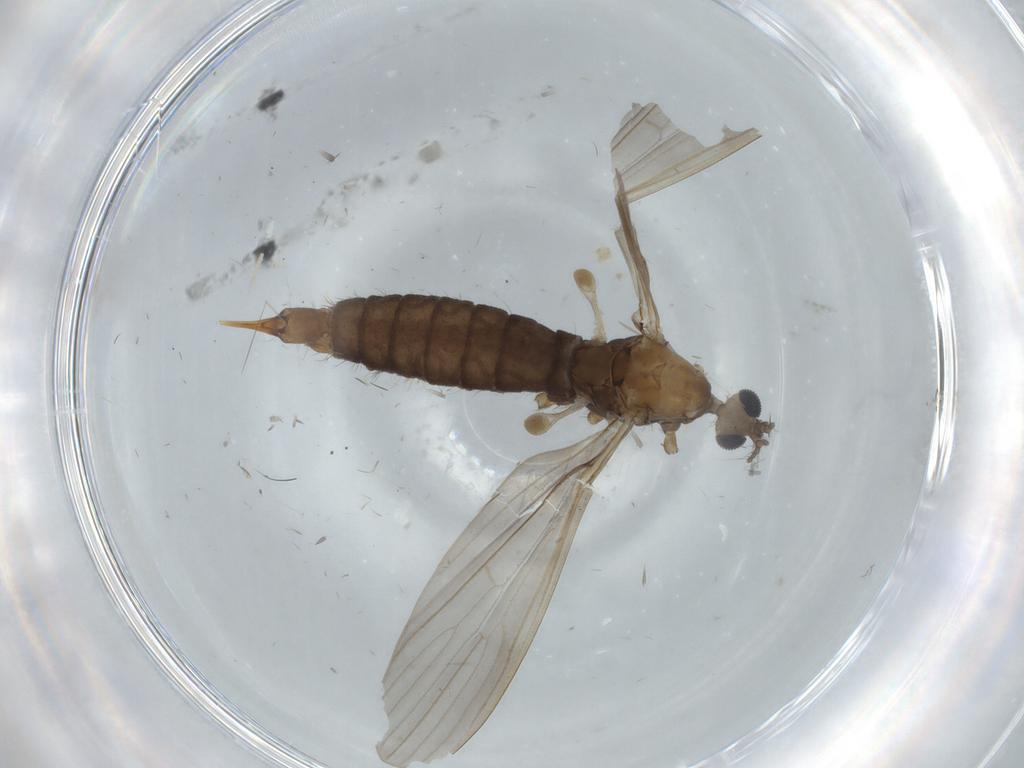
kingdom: Animalia
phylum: Arthropoda
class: Insecta
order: Diptera
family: Limoniidae
